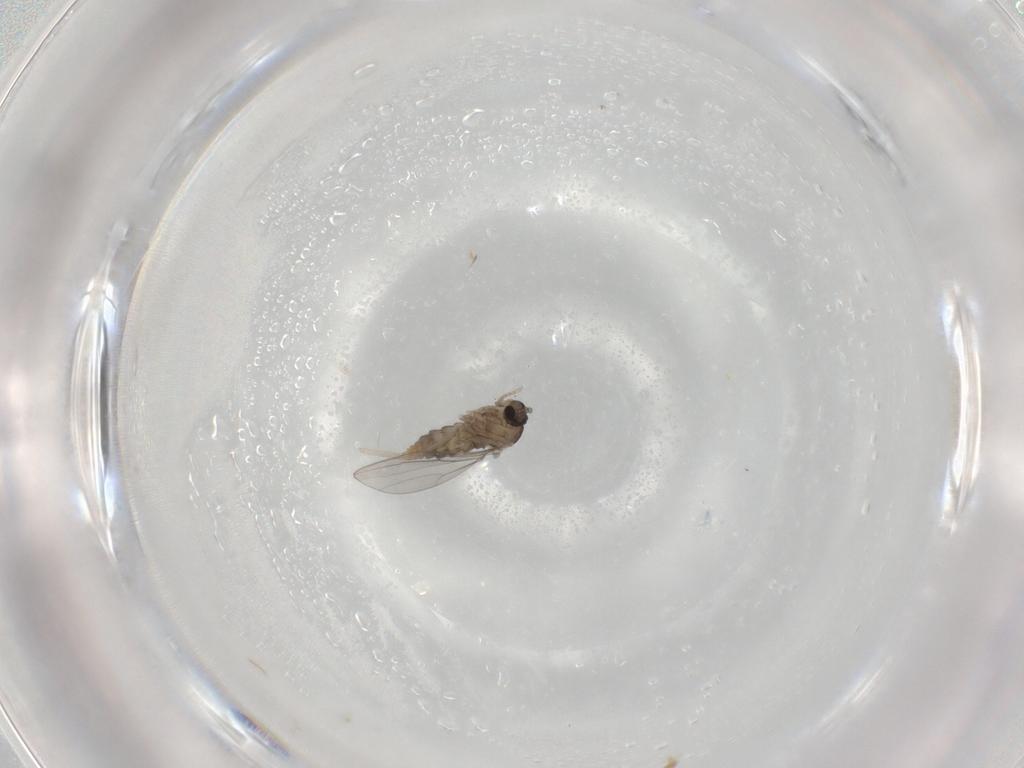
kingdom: Animalia
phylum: Arthropoda
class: Insecta
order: Diptera
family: Cecidomyiidae
